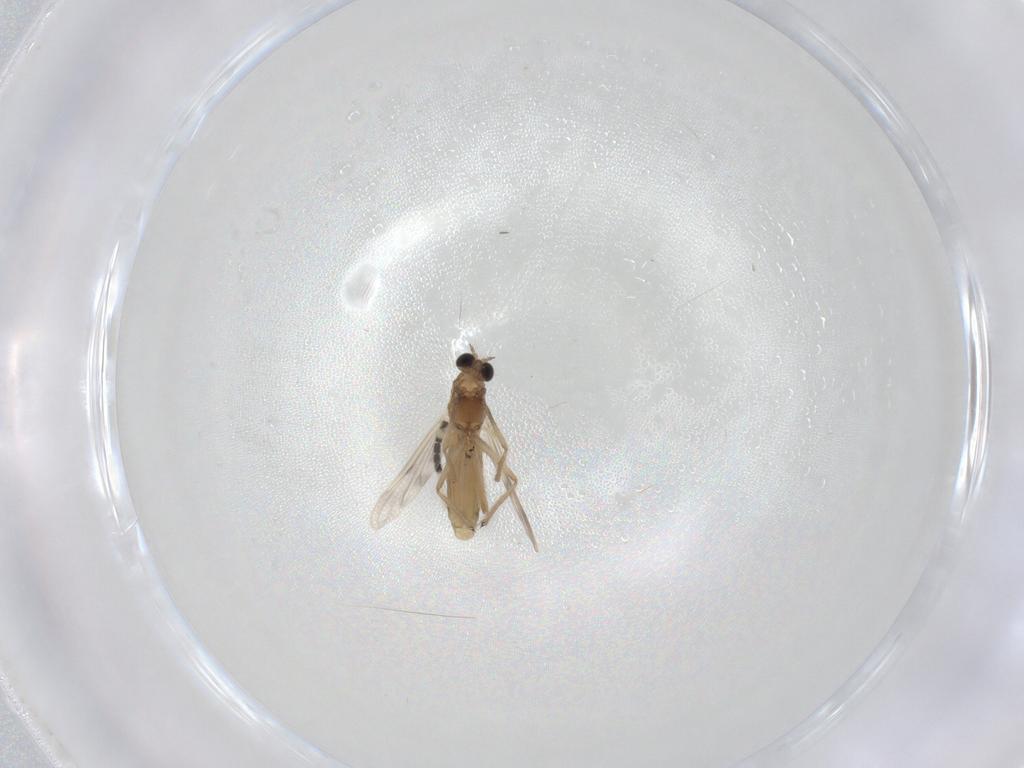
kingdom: Animalia
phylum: Arthropoda
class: Insecta
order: Diptera
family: Chironomidae
